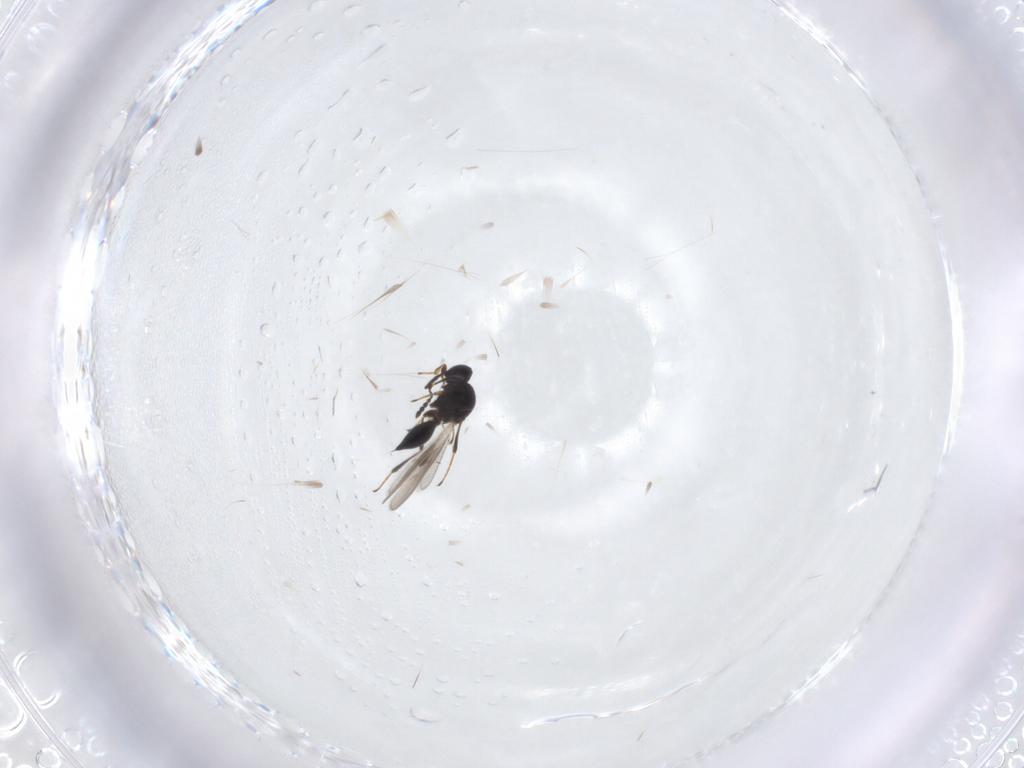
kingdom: Animalia
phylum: Arthropoda
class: Insecta
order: Hymenoptera
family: Platygastridae
